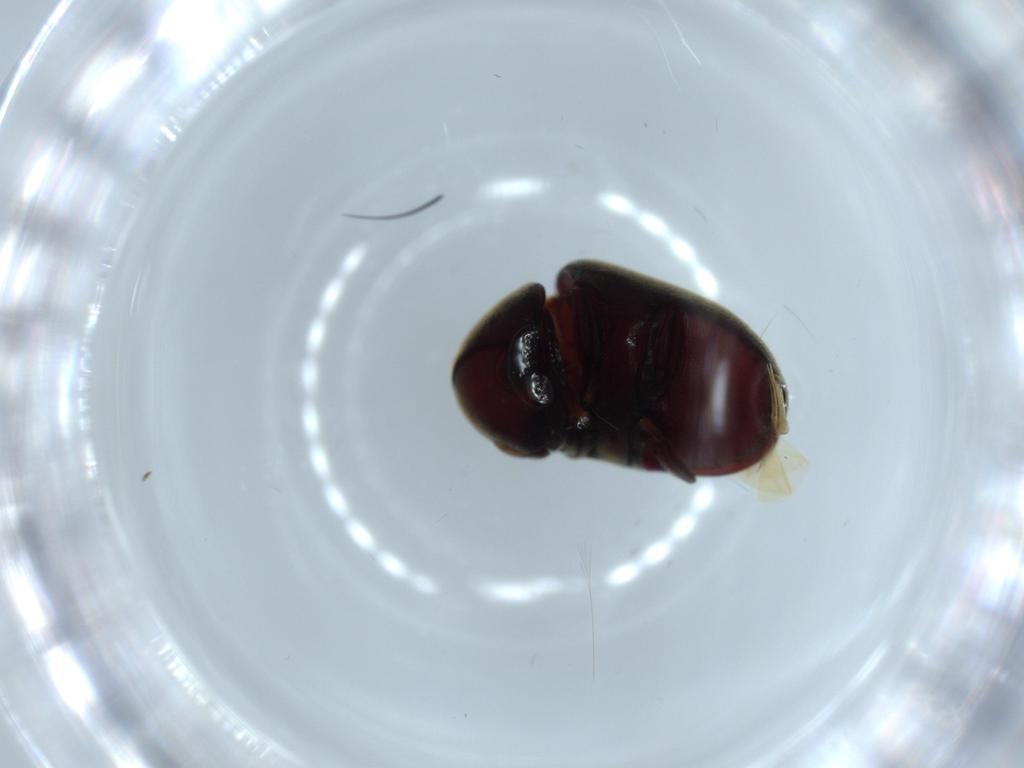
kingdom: Animalia
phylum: Arthropoda
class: Insecta
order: Coleoptera
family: Ptinidae
